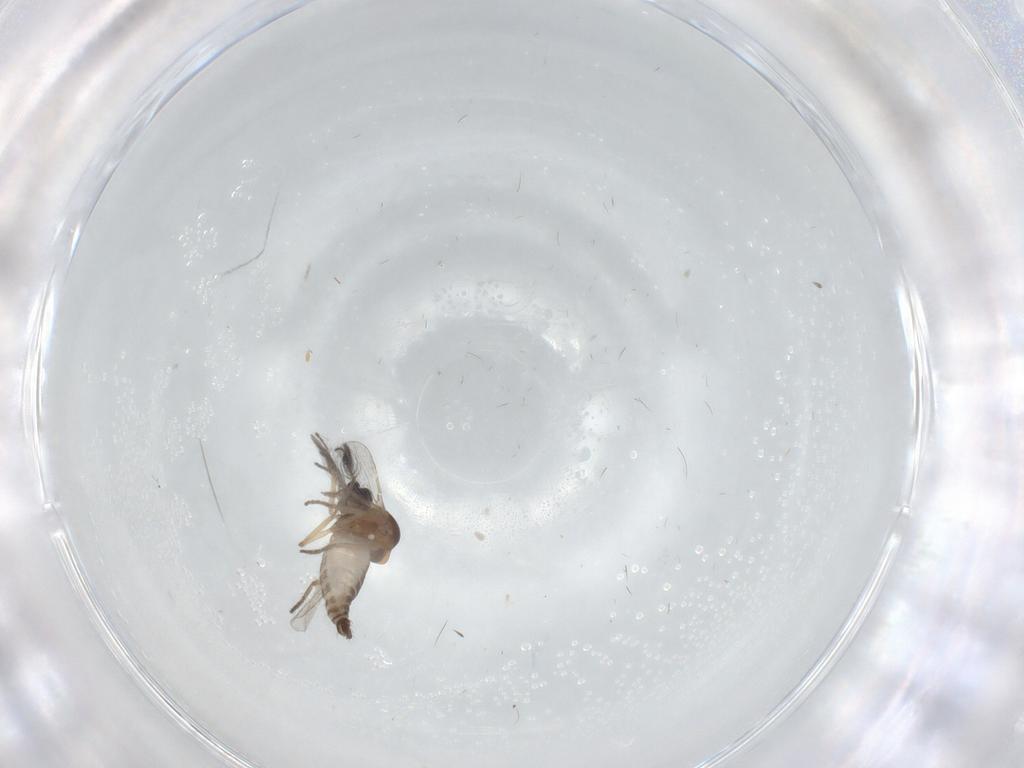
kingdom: Animalia
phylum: Arthropoda
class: Insecta
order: Diptera
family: Ceratopogonidae
